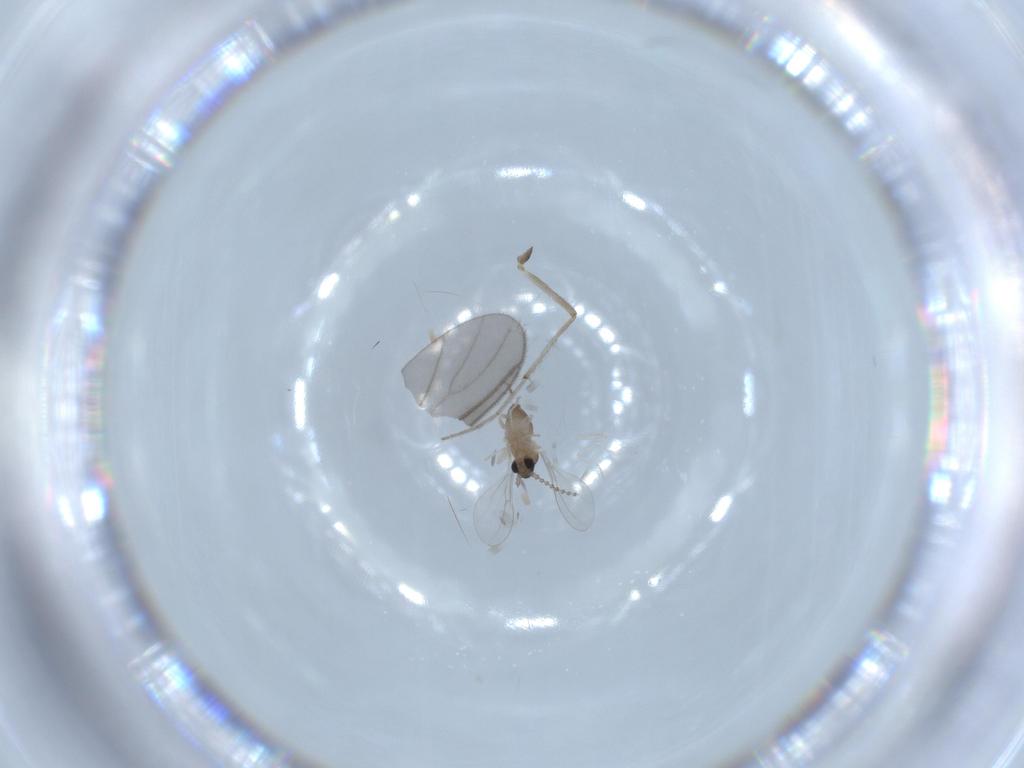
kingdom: Animalia
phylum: Arthropoda
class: Insecta
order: Diptera
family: Cecidomyiidae
